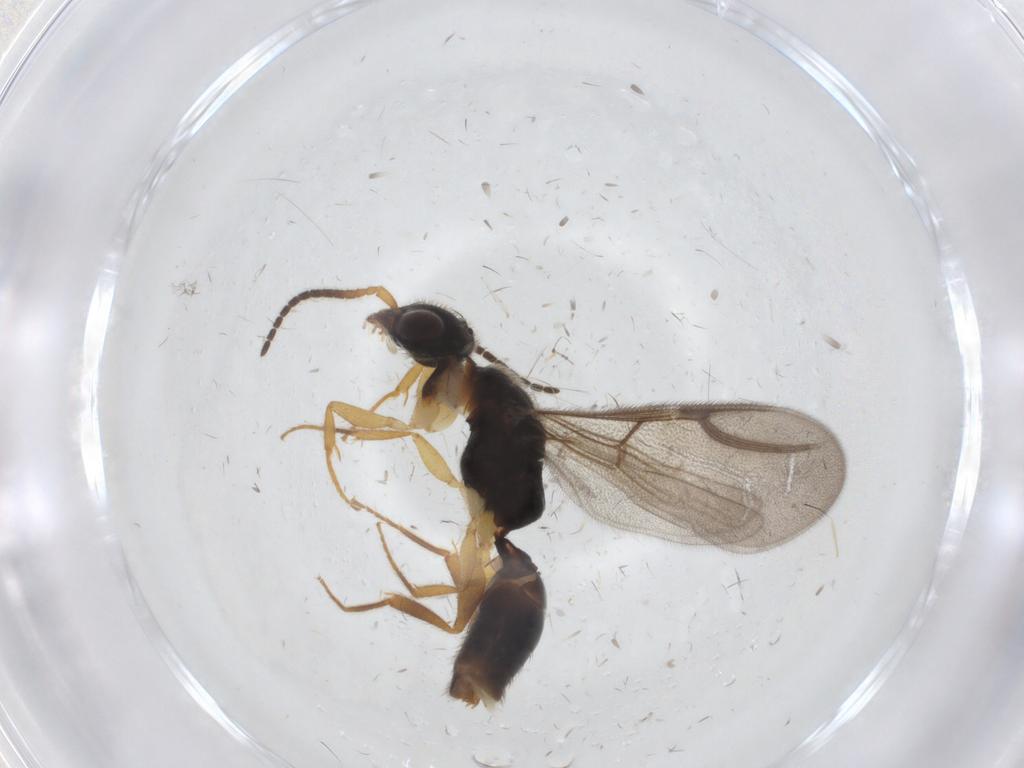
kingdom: Animalia
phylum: Arthropoda
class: Insecta
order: Hymenoptera
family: Bethylidae
